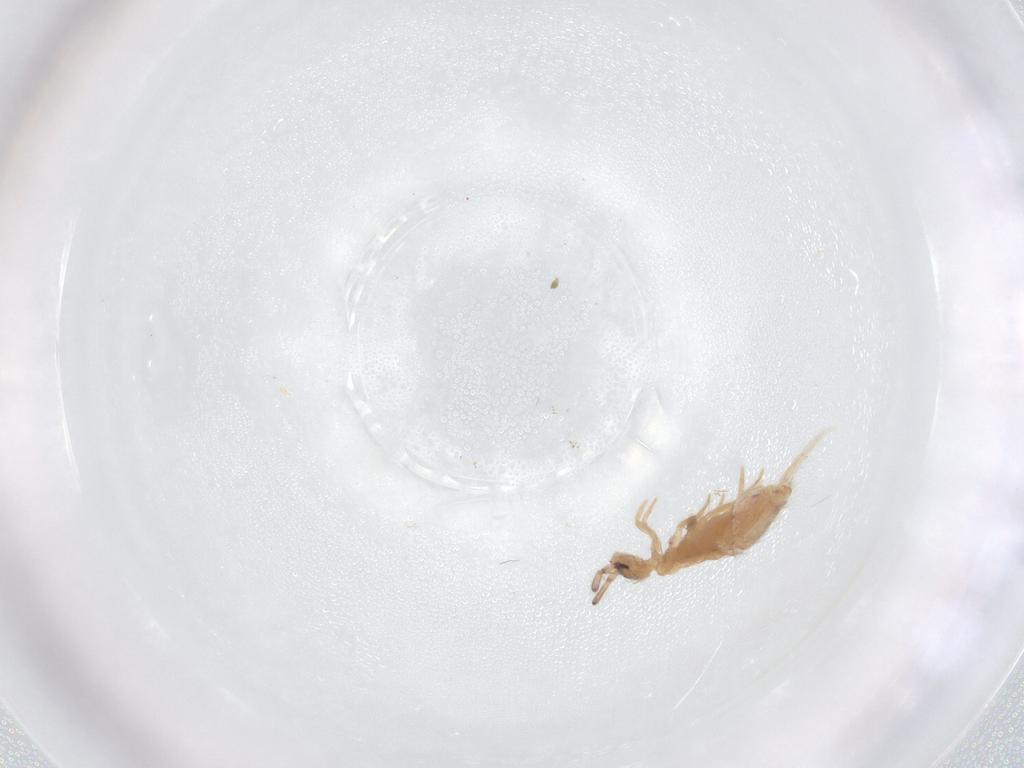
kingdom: Animalia
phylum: Arthropoda
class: Collembola
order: Entomobryomorpha
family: Entomobryidae
